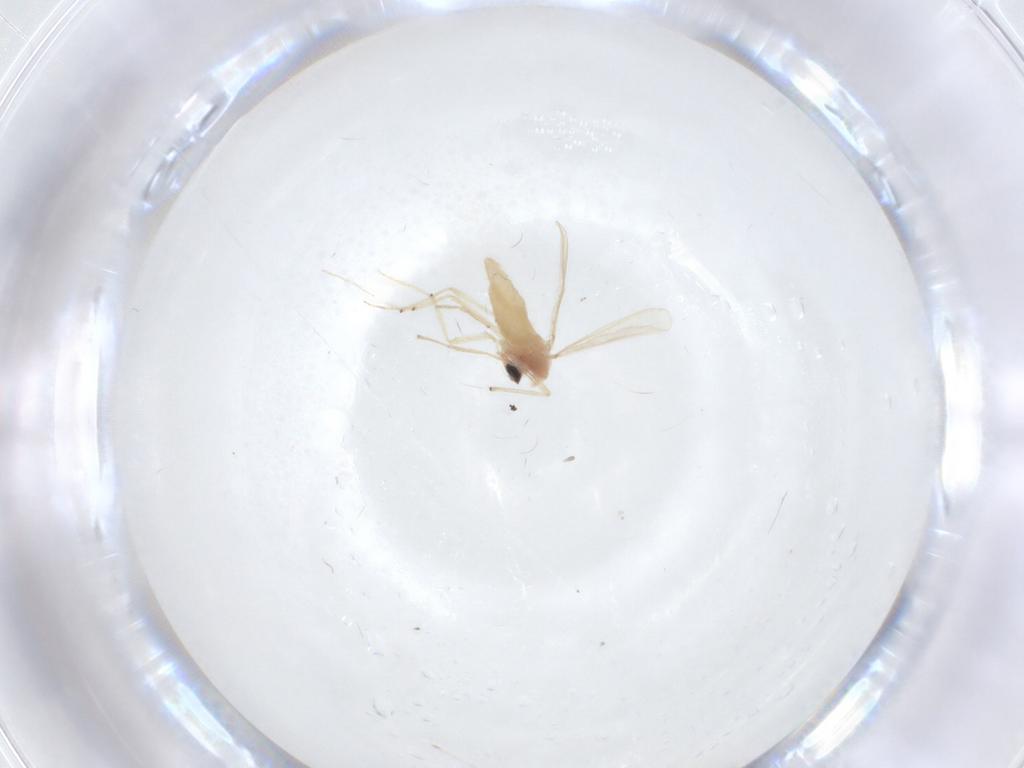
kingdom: Animalia
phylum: Arthropoda
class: Insecta
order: Diptera
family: Chironomidae
